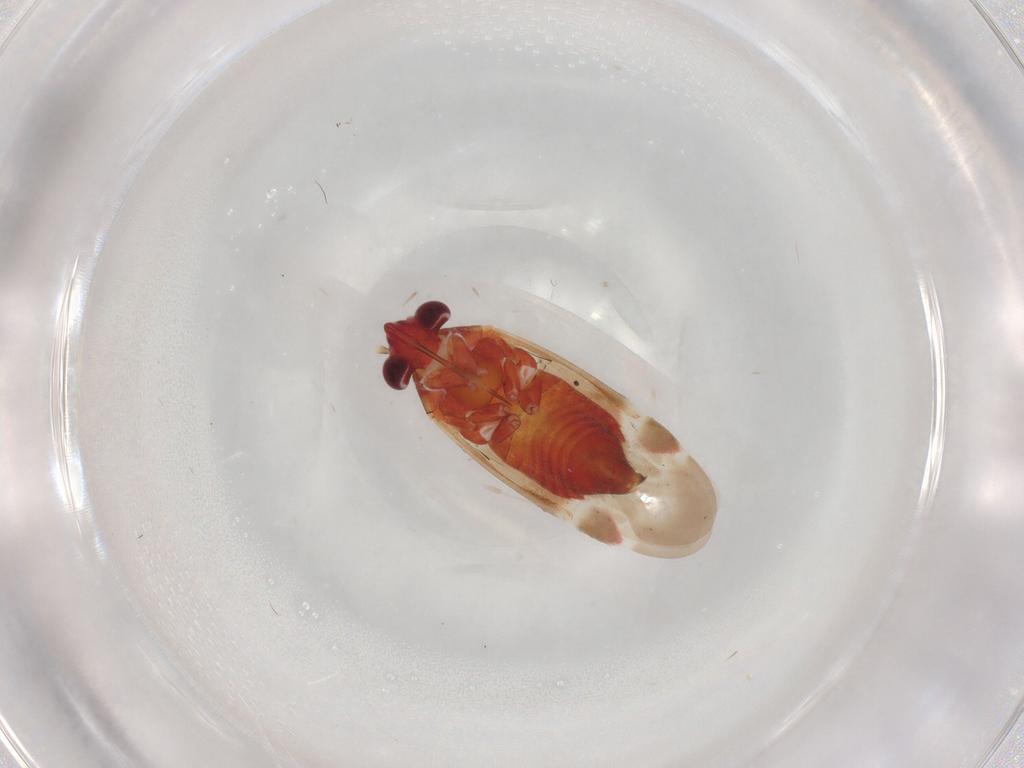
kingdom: Animalia
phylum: Arthropoda
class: Insecta
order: Hemiptera
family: Miridae
